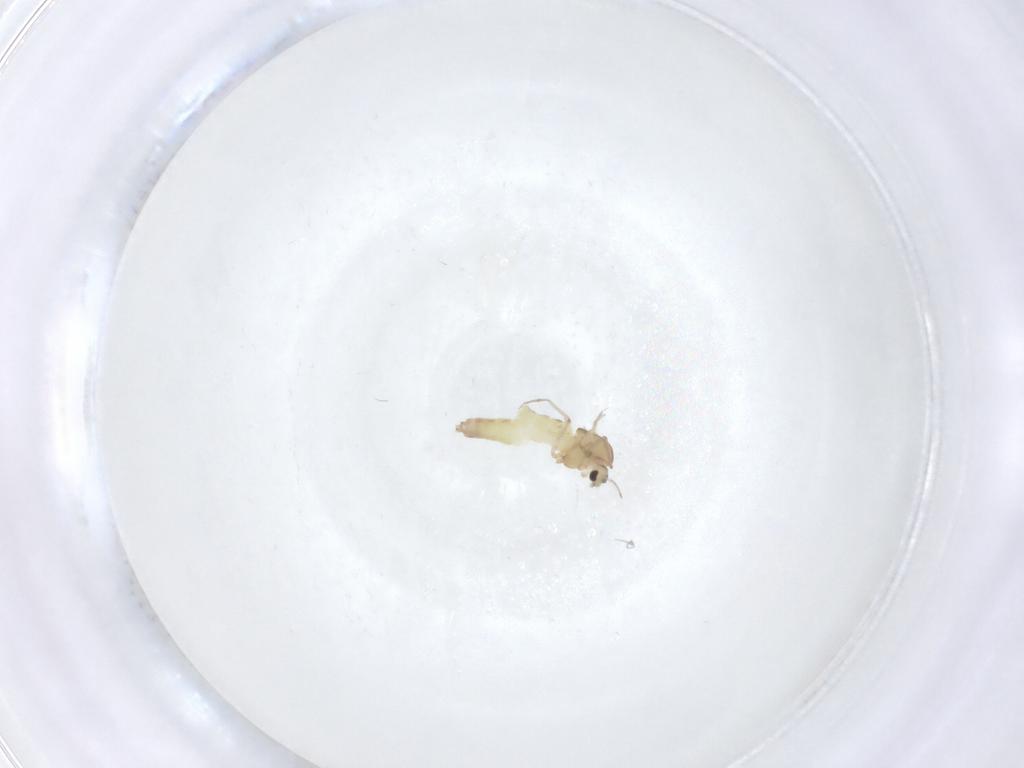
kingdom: Animalia
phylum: Arthropoda
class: Insecta
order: Diptera
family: Chironomidae
